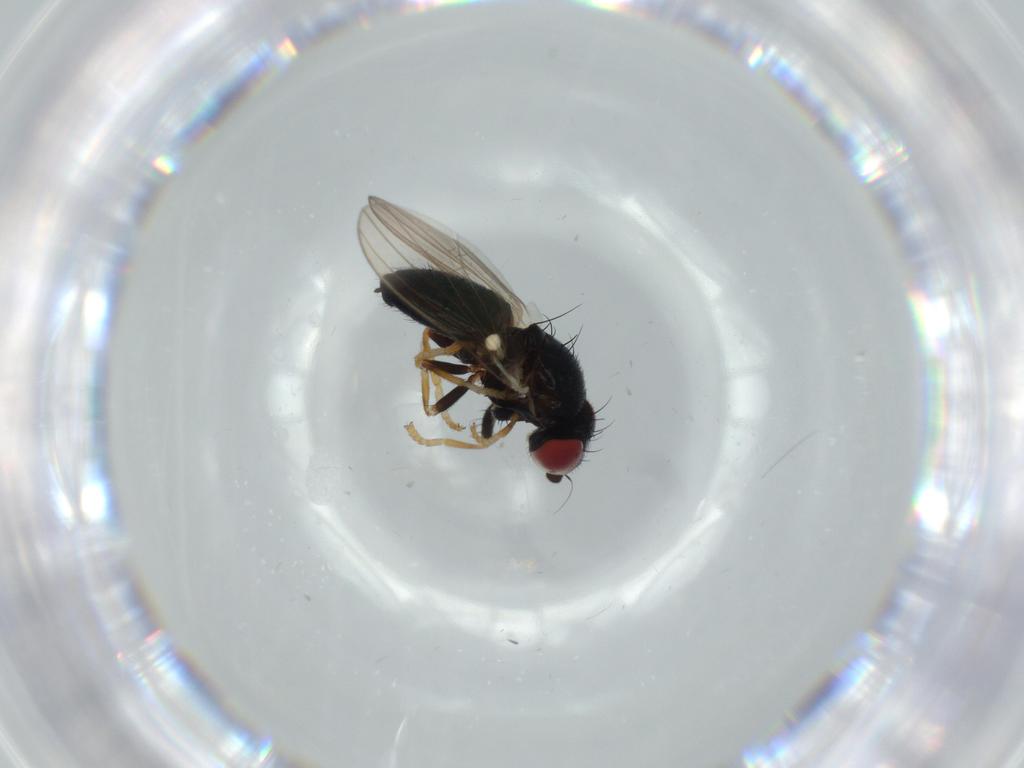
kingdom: Animalia
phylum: Arthropoda
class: Insecta
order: Diptera
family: Chamaemyiidae
